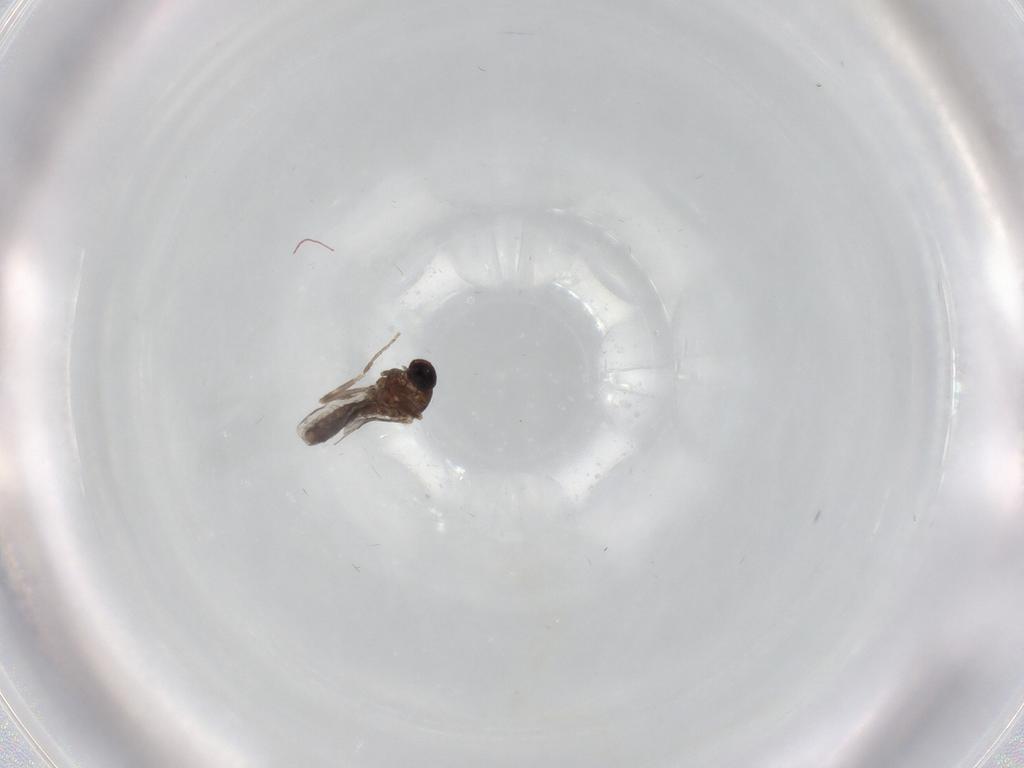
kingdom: Animalia
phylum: Arthropoda
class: Insecta
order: Diptera
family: Ceratopogonidae
